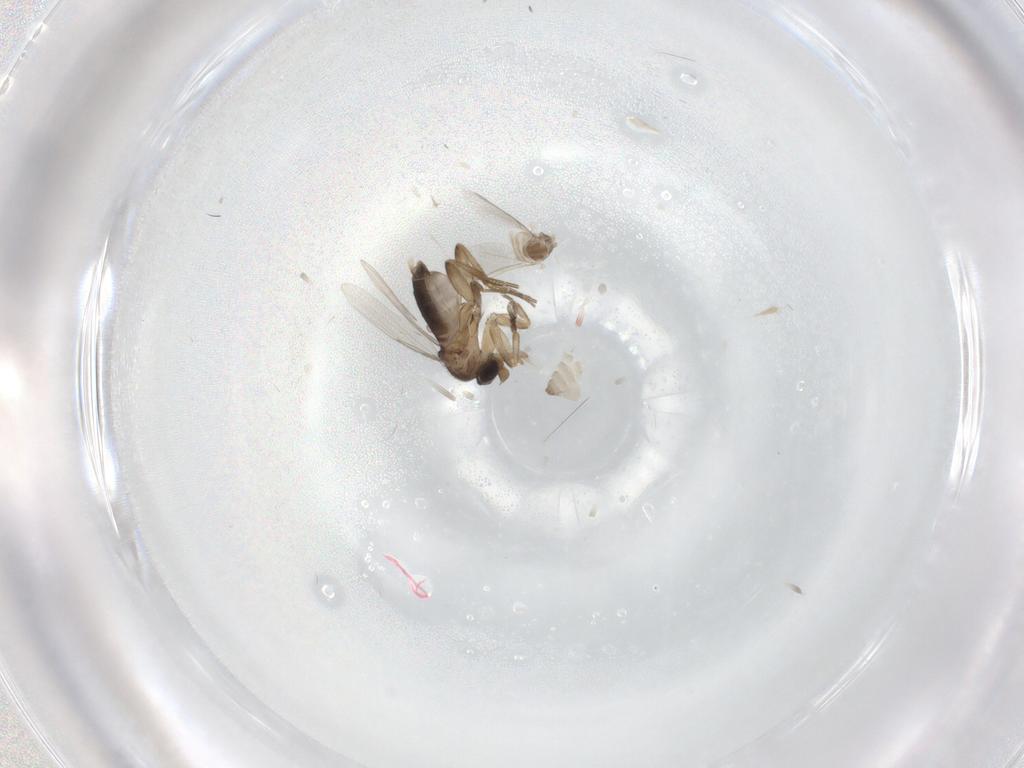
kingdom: Animalia
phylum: Arthropoda
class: Insecta
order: Diptera
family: Phoridae
